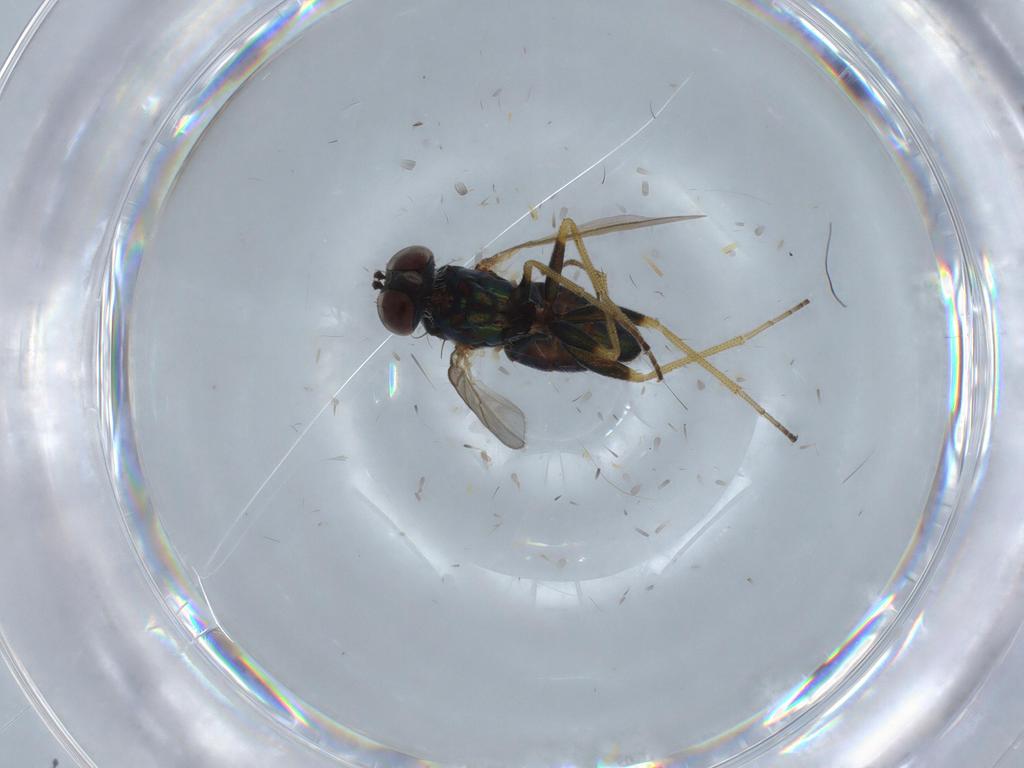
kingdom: Animalia
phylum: Arthropoda
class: Insecta
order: Diptera
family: Dolichopodidae
